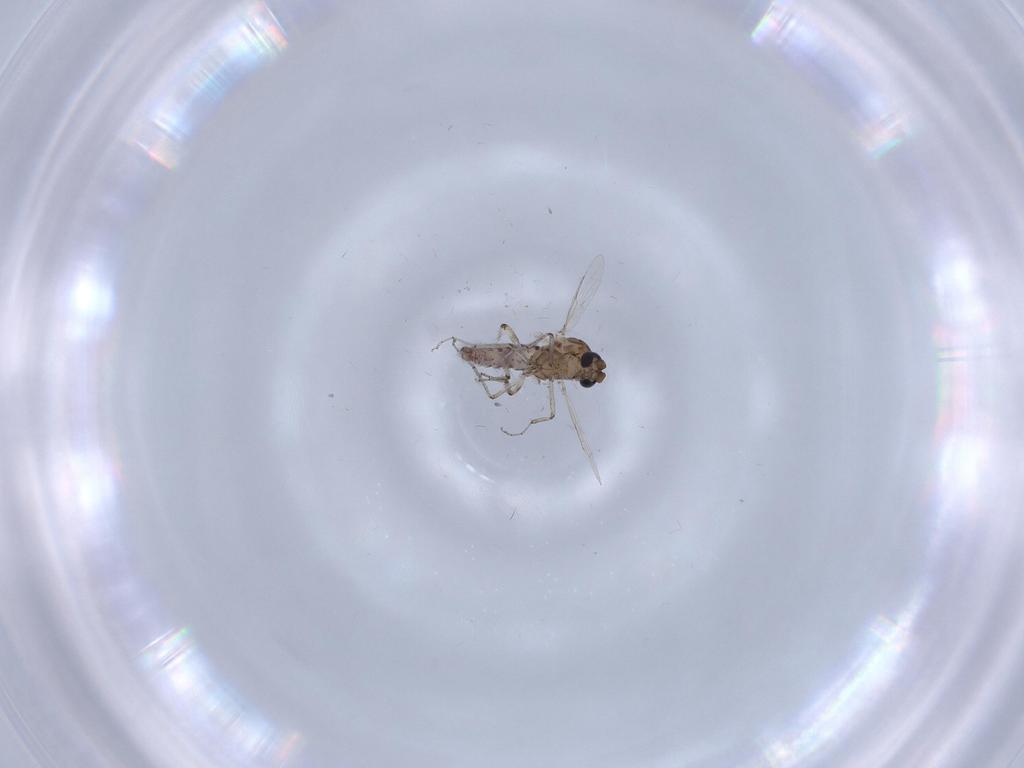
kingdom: Animalia
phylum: Arthropoda
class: Insecta
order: Diptera
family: Ceratopogonidae
